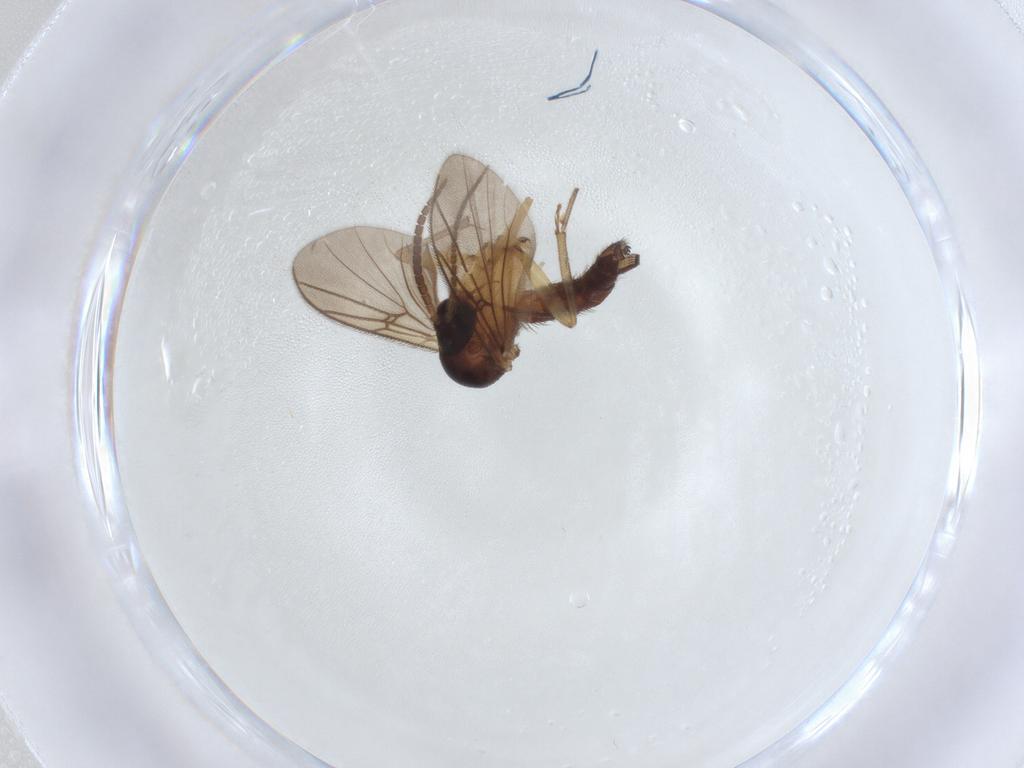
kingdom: Animalia
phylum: Arthropoda
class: Insecta
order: Diptera
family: Mycetophilidae
